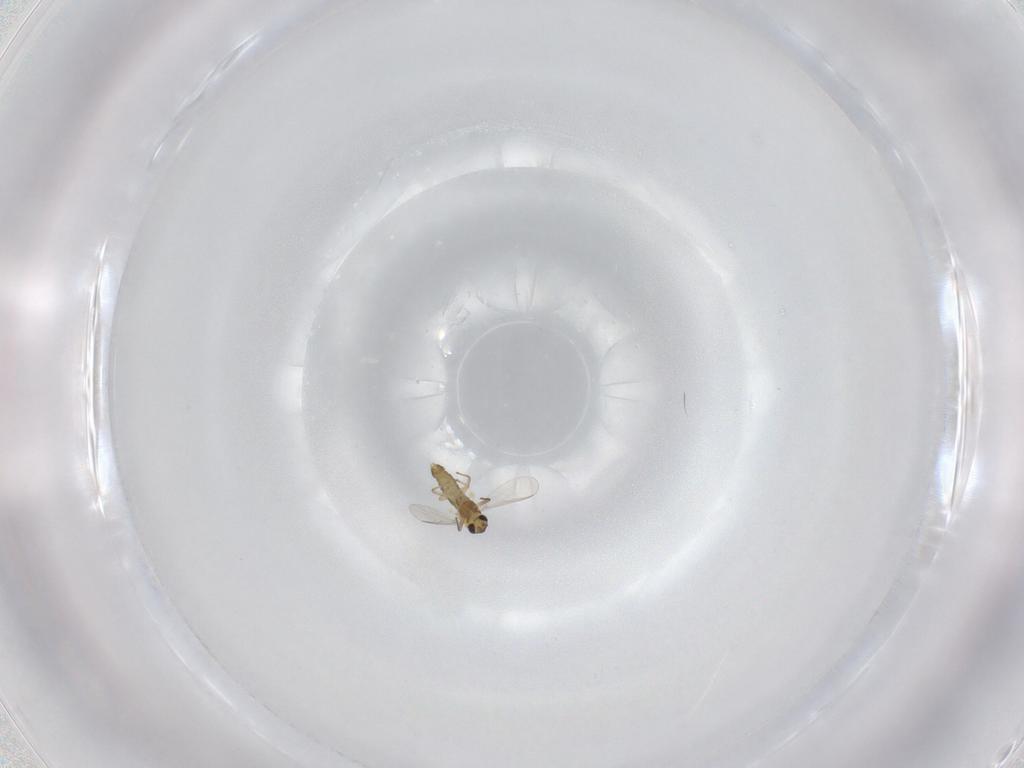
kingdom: Animalia
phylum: Arthropoda
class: Insecta
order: Diptera
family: Chironomidae
